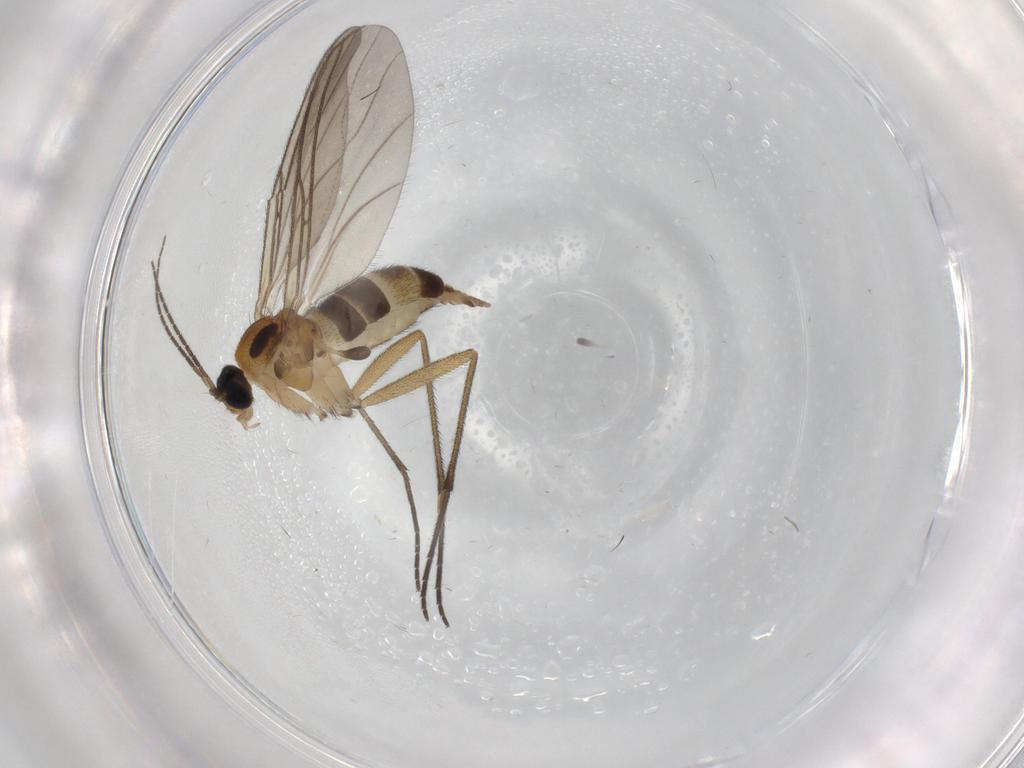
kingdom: Animalia
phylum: Arthropoda
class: Insecta
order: Diptera
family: Sciaridae
